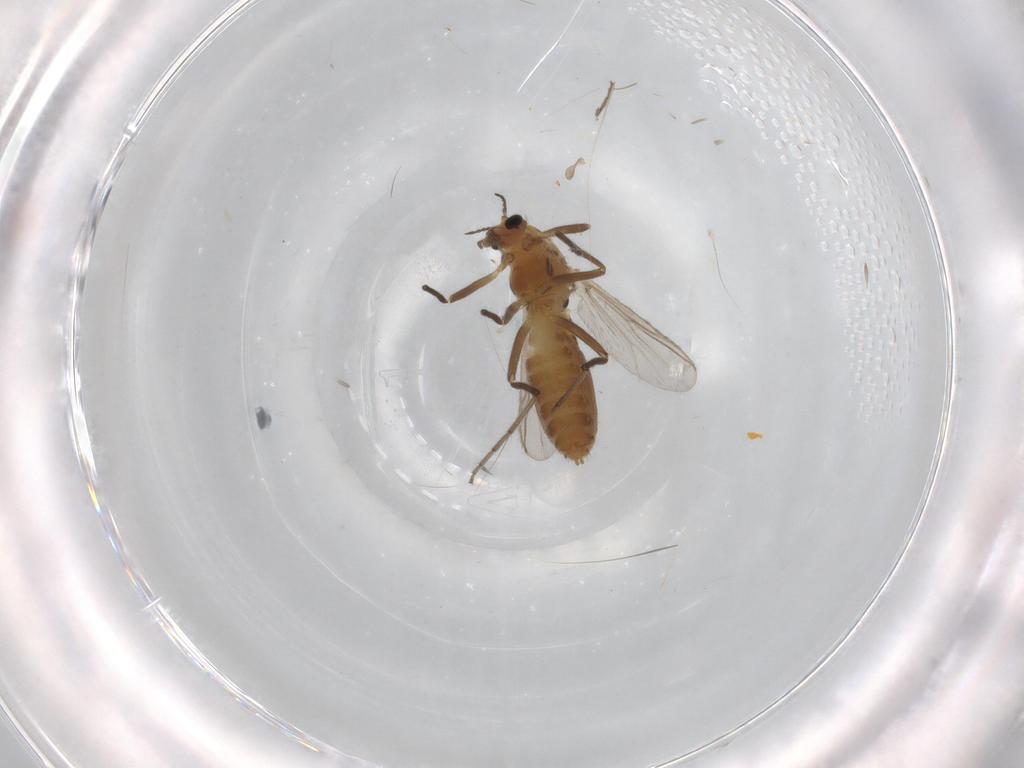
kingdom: Animalia
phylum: Arthropoda
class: Insecta
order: Diptera
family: Chironomidae
